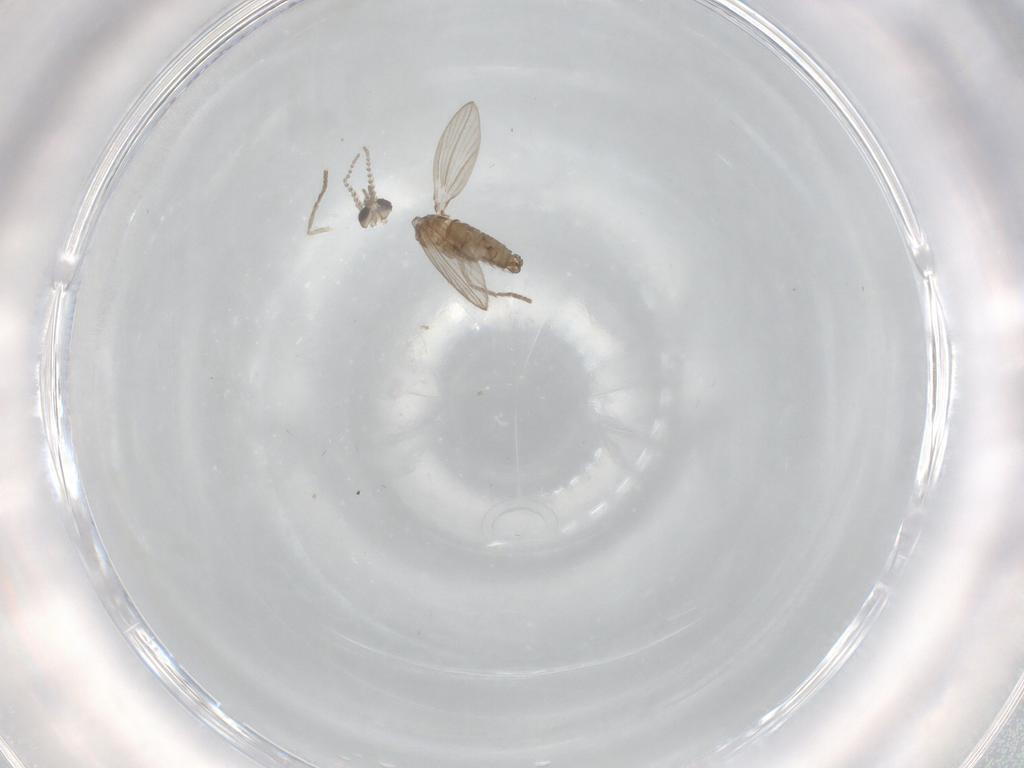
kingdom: Animalia
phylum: Arthropoda
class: Insecta
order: Diptera
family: Psychodidae
